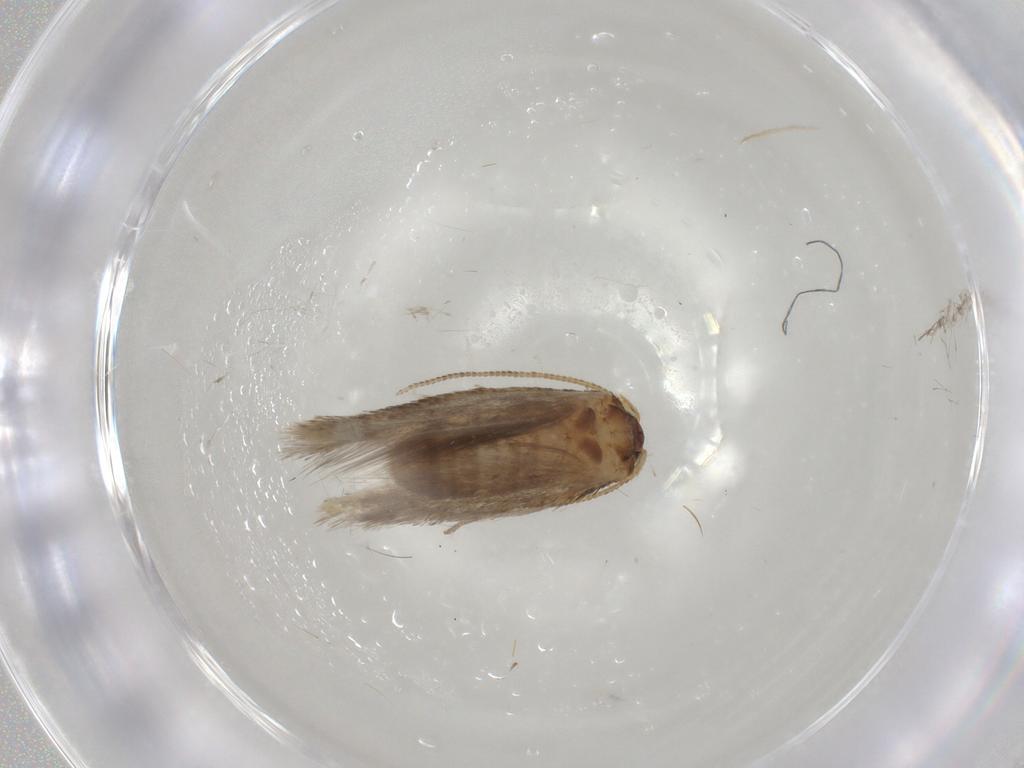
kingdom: Animalia
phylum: Arthropoda
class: Insecta
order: Lepidoptera
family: Nepticulidae
